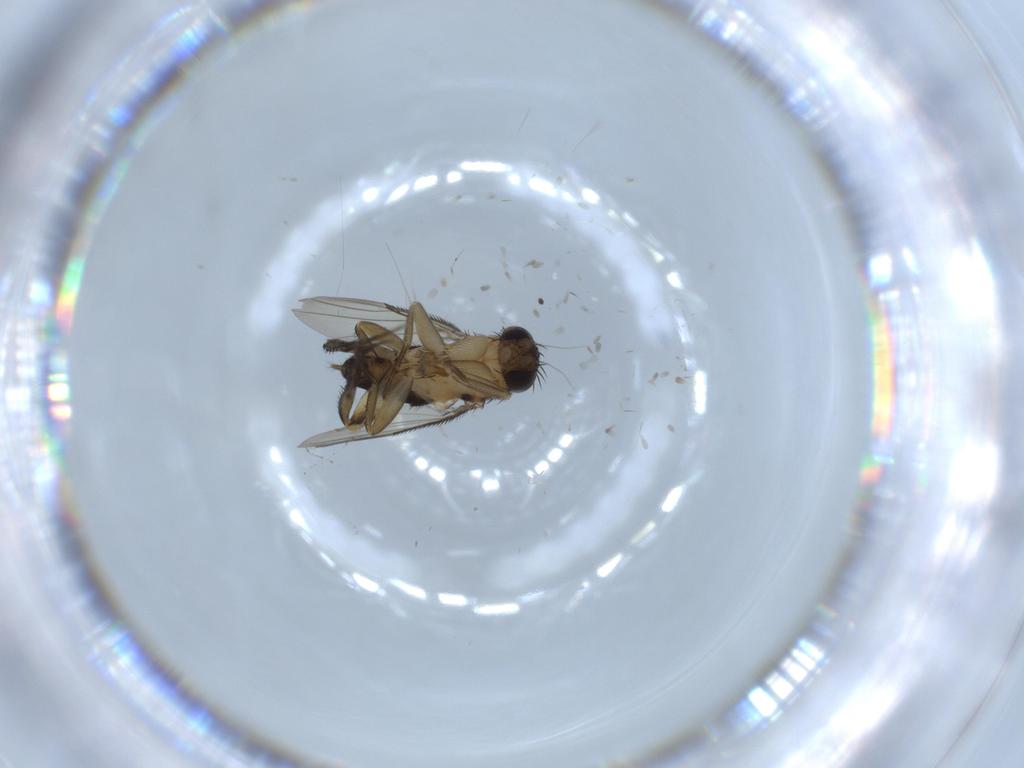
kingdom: Animalia
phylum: Arthropoda
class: Insecta
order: Diptera
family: Phoridae
